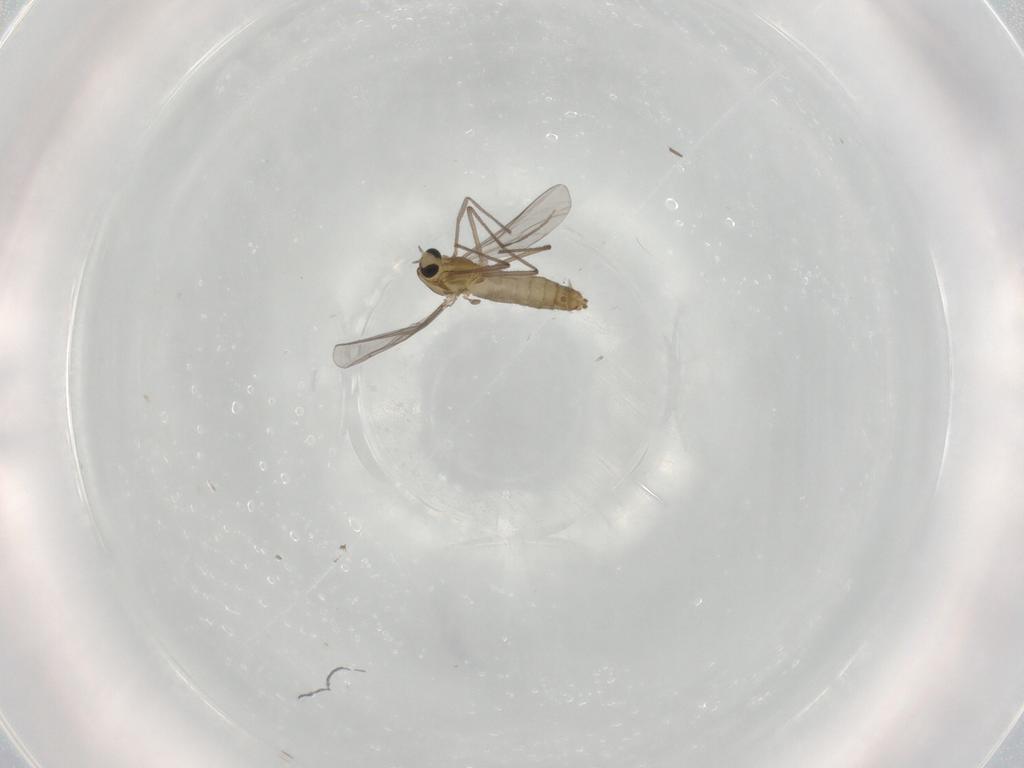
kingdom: Animalia
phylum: Arthropoda
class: Insecta
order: Diptera
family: Chironomidae
